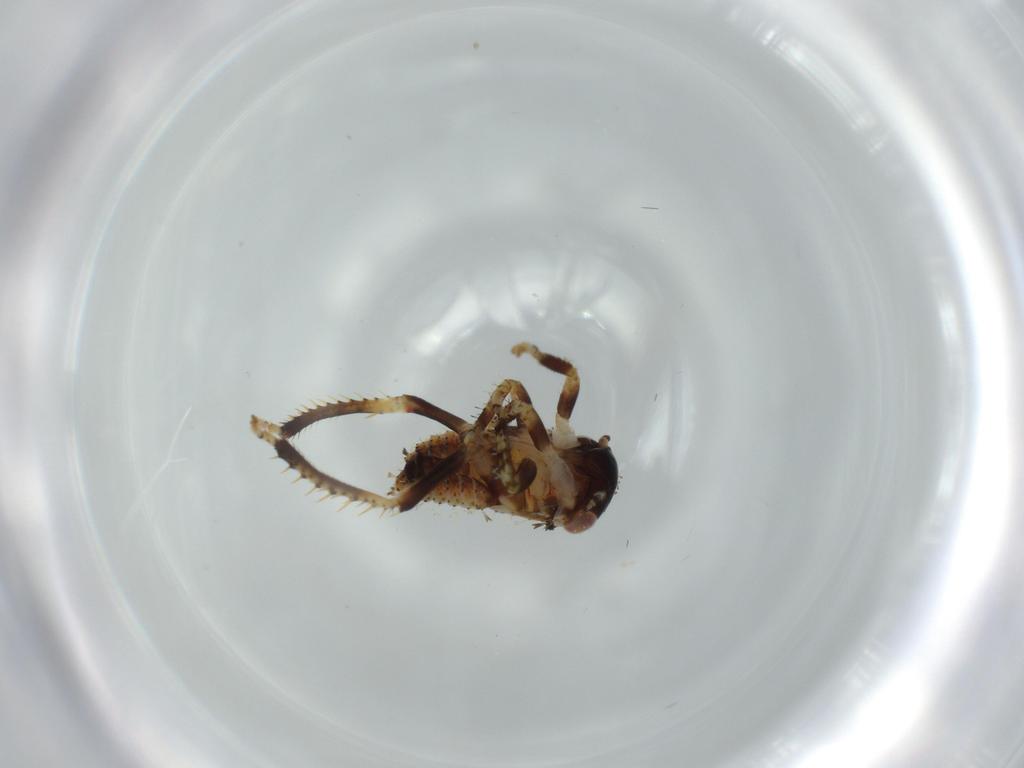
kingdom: Animalia
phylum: Arthropoda
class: Insecta
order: Hemiptera
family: Cicadellidae
